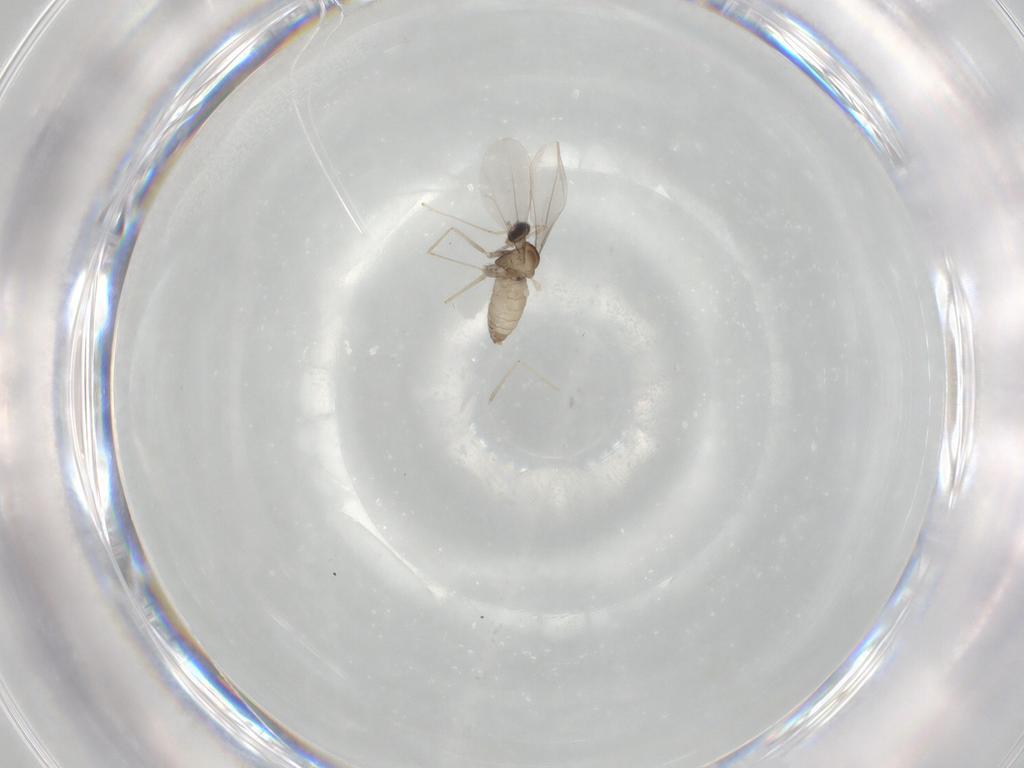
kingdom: Animalia
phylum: Arthropoda
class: Insecta
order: Diptera
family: Cecidomyiidae
